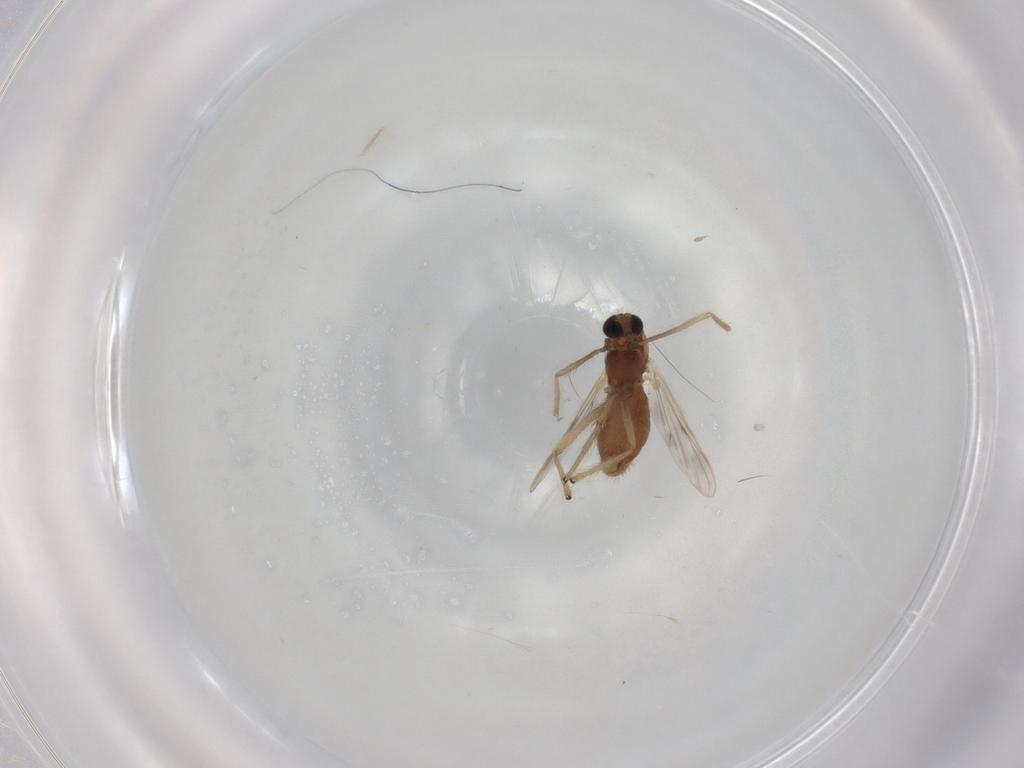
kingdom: Animalia
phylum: Arthropoda
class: Insecta
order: Diptera
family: Chironomidae
